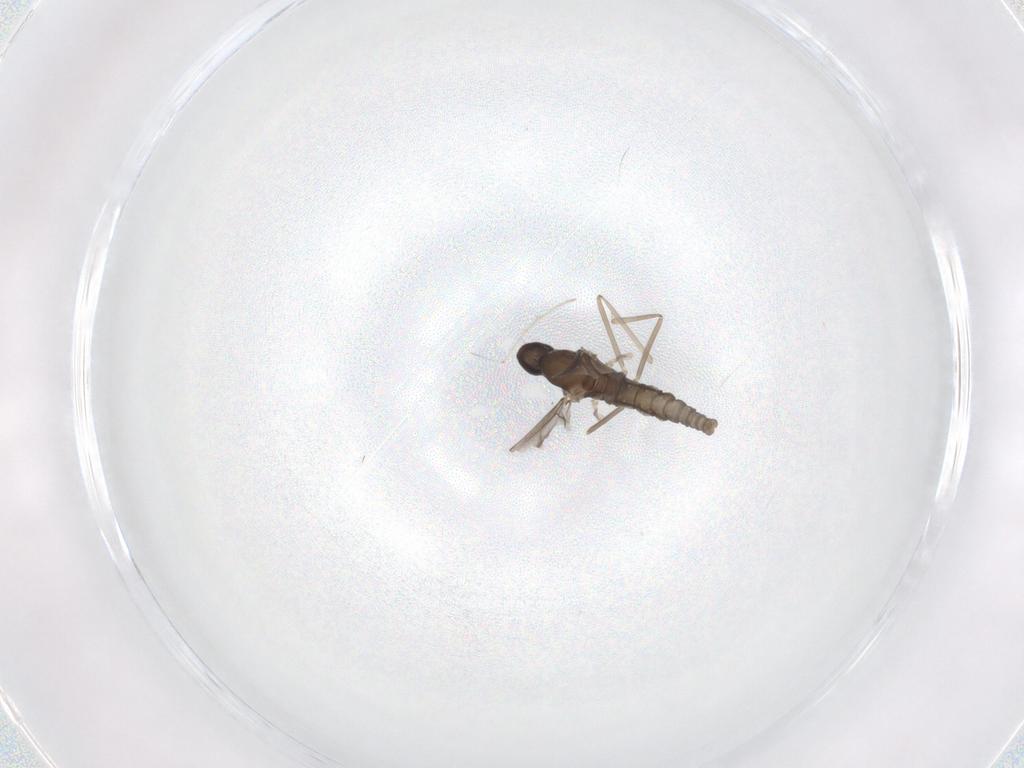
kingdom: Animalia
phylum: Arthropoda
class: Insecta
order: Diptera
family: Cecidomyiidae
